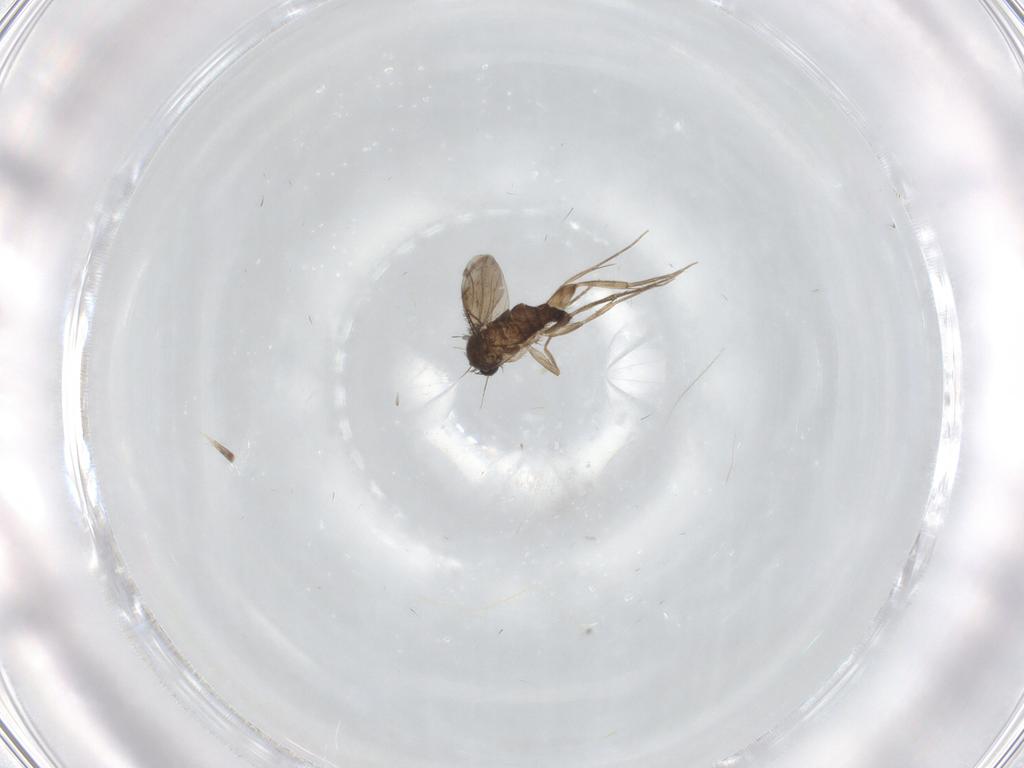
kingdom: Animalia
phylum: Arthropoda
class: Insecta
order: Diptera
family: Phoridae
